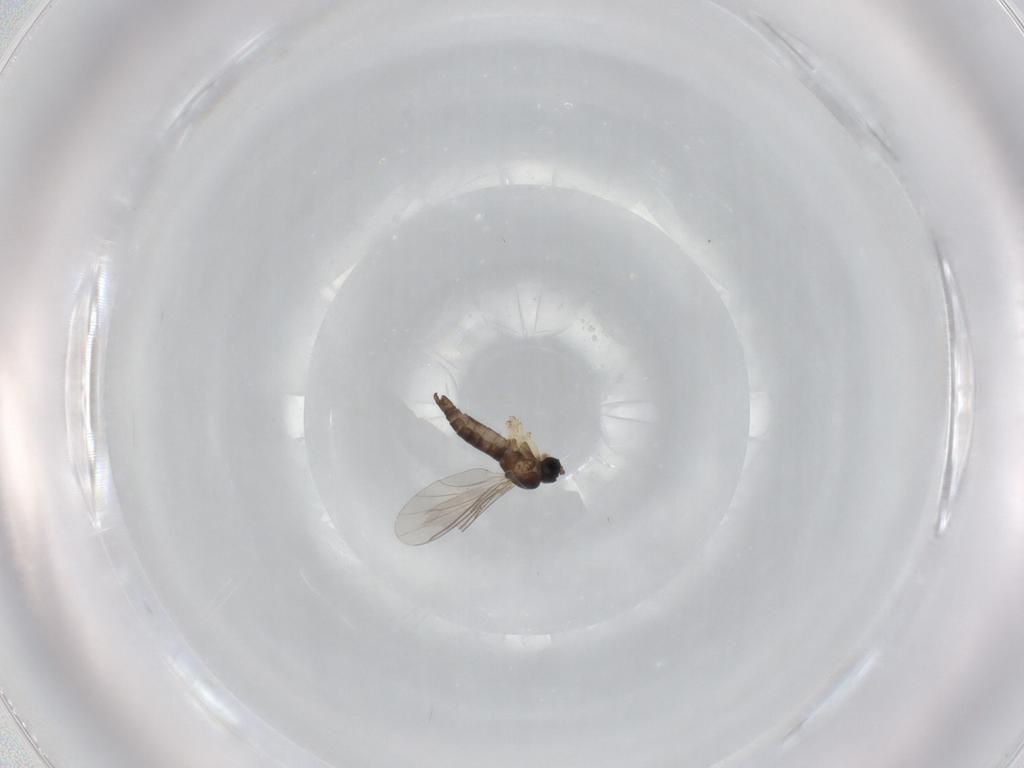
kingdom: Animalia
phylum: Arthropoda
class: Insecta
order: Diptera
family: Sciaridae
